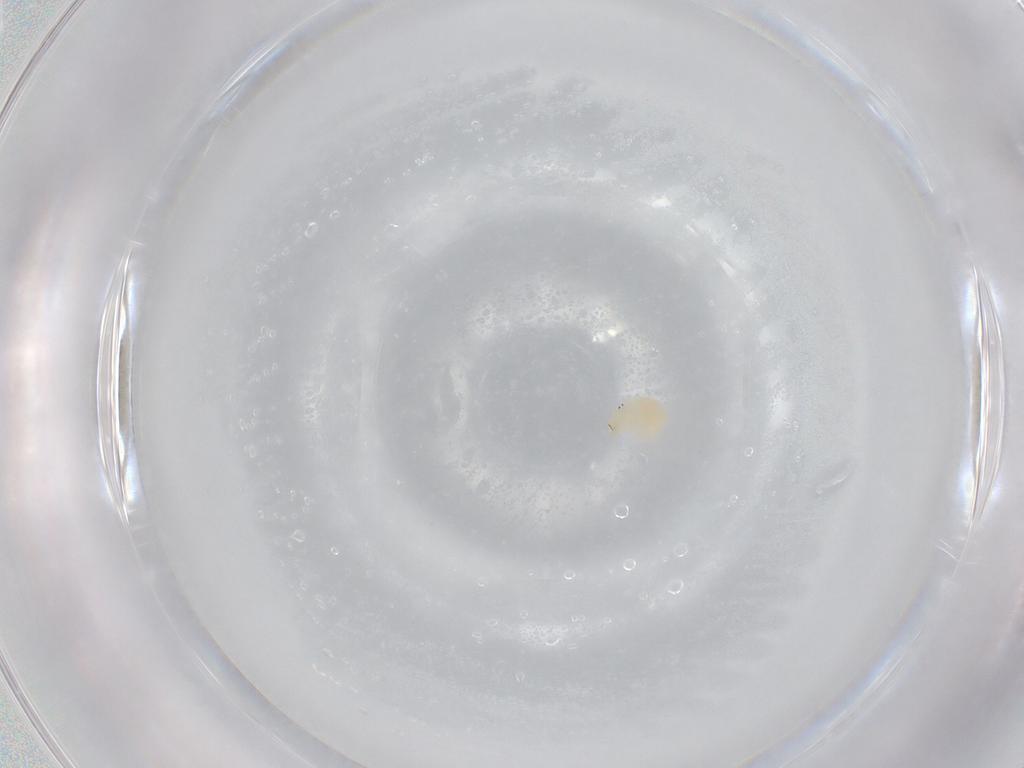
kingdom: Animalia
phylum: Arthropoda
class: Arachnida
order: Trombidiformes
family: Hydryphantidae
